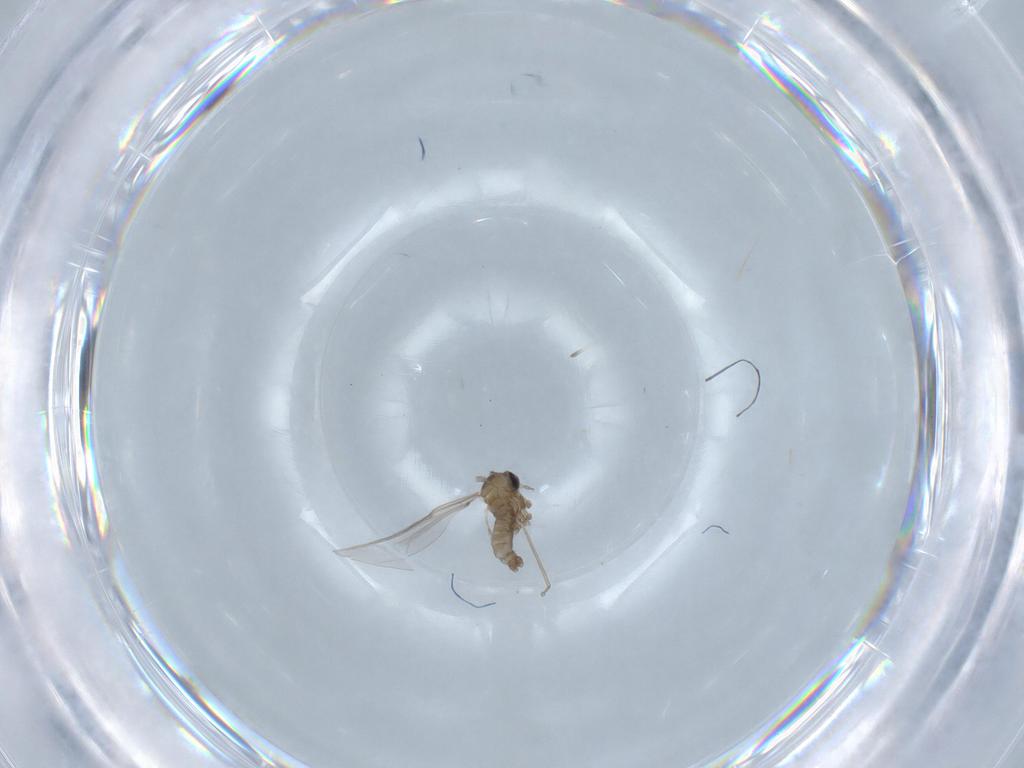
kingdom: Animalia
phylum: Arthropoda
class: Insecta
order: Diptera
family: Cecidomyiidae
